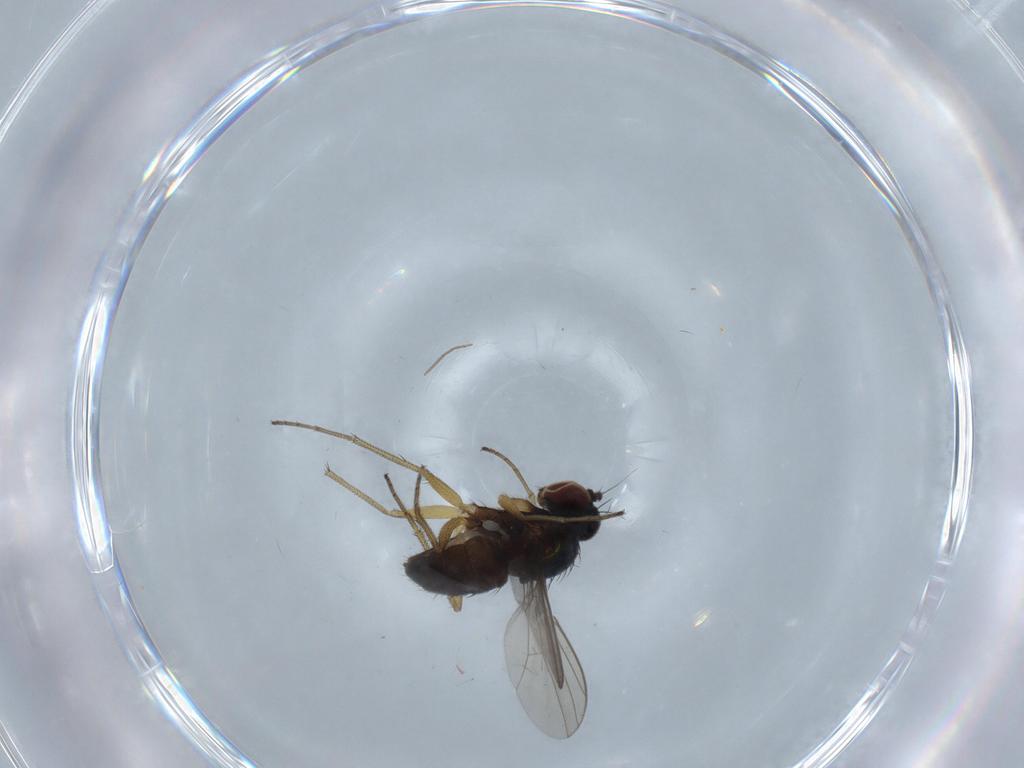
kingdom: Animalia
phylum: Arthropoda
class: Insecta
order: Diptera
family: Dolichopodidae
